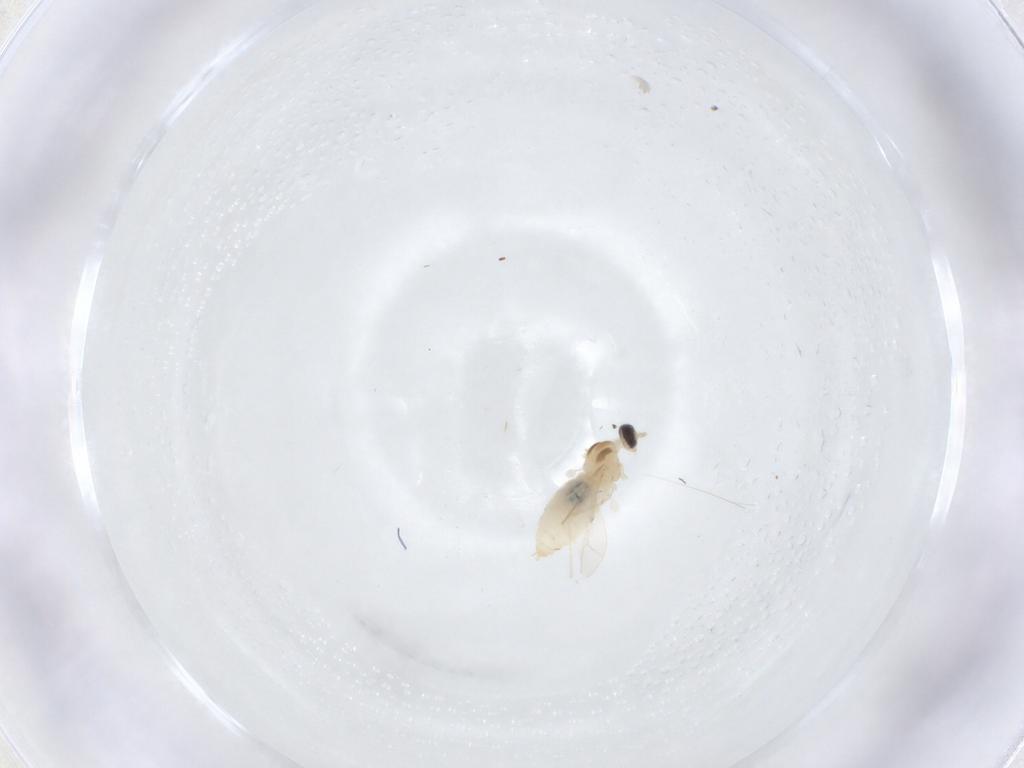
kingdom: Animalia
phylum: Arthropoda
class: Insecta
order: Diptera
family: Cecidomyiidae
